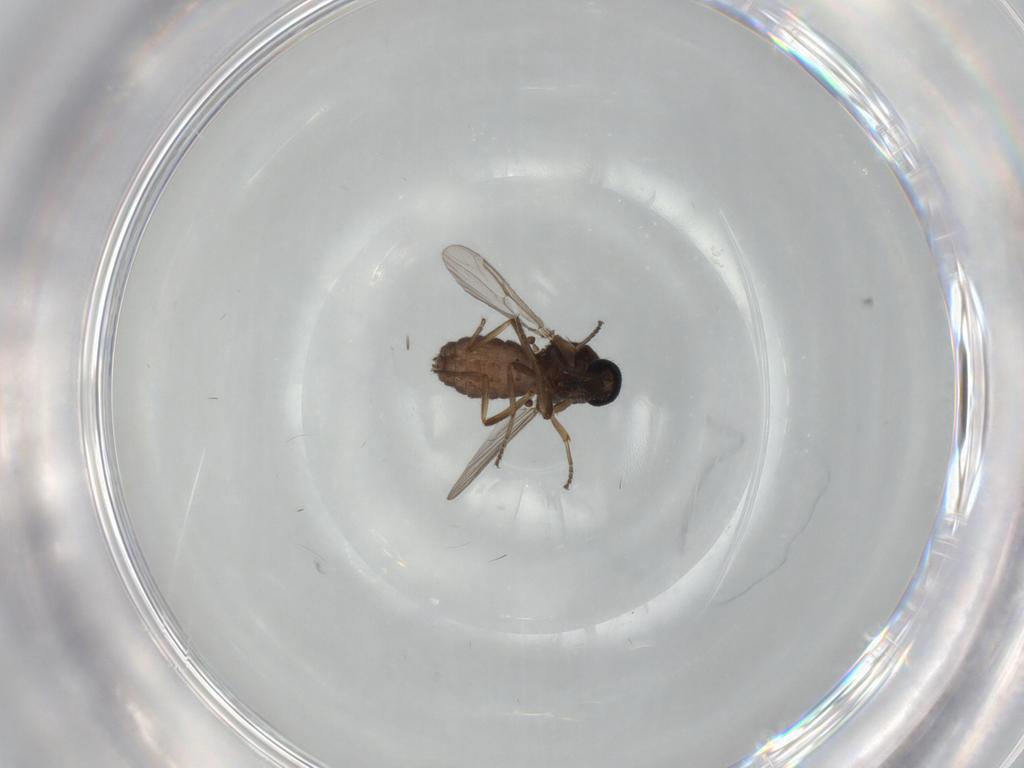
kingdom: Animalia
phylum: Arthropoda
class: Insecta
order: Diptera
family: Ceratopogonidae
